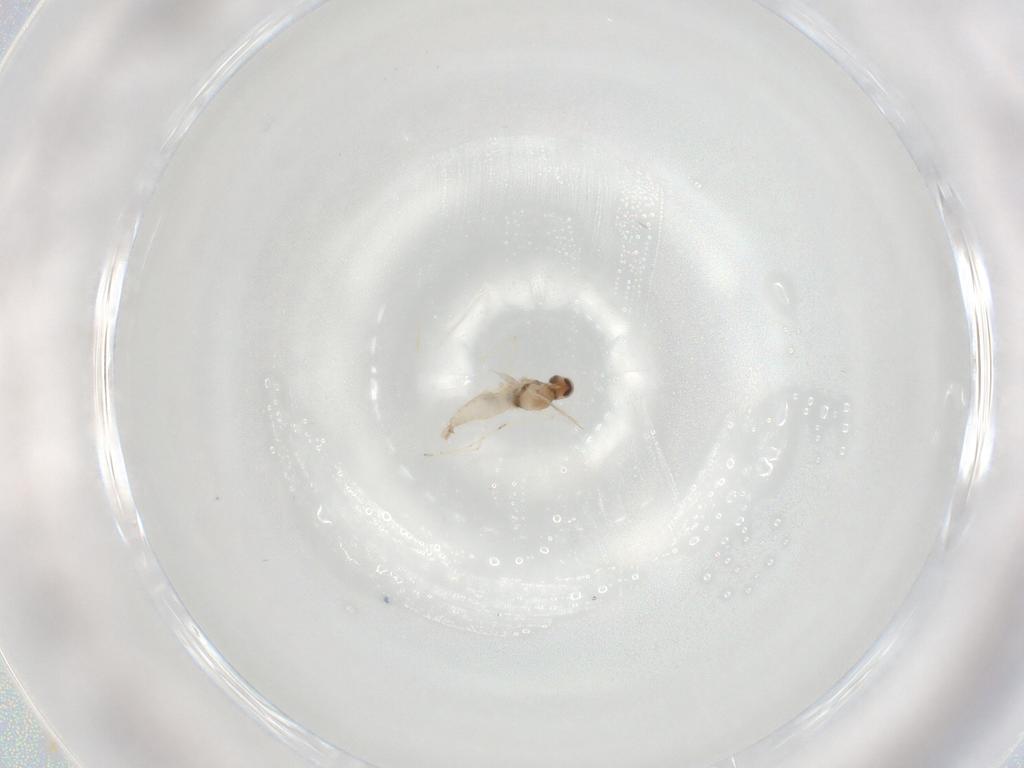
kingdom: Animalia
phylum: Arthropoda
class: Insecta
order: Diptera
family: Cecidomyiidae
